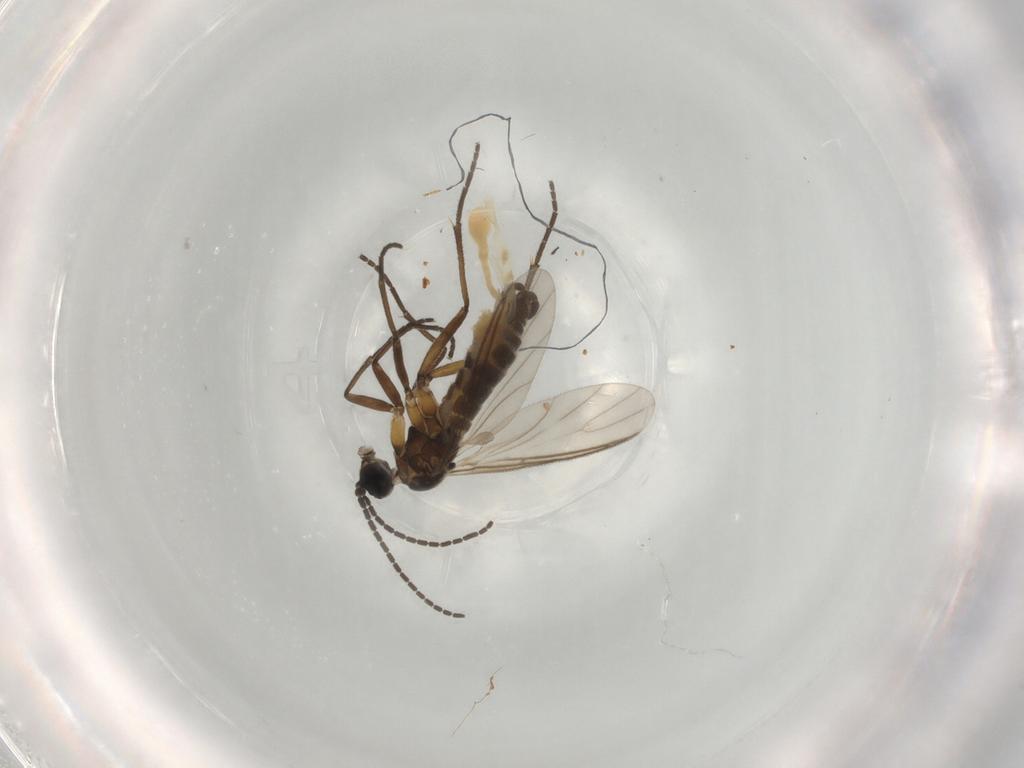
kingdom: Animalia
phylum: Arthropoda
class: Insecta
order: Diptera
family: Sciaridae
